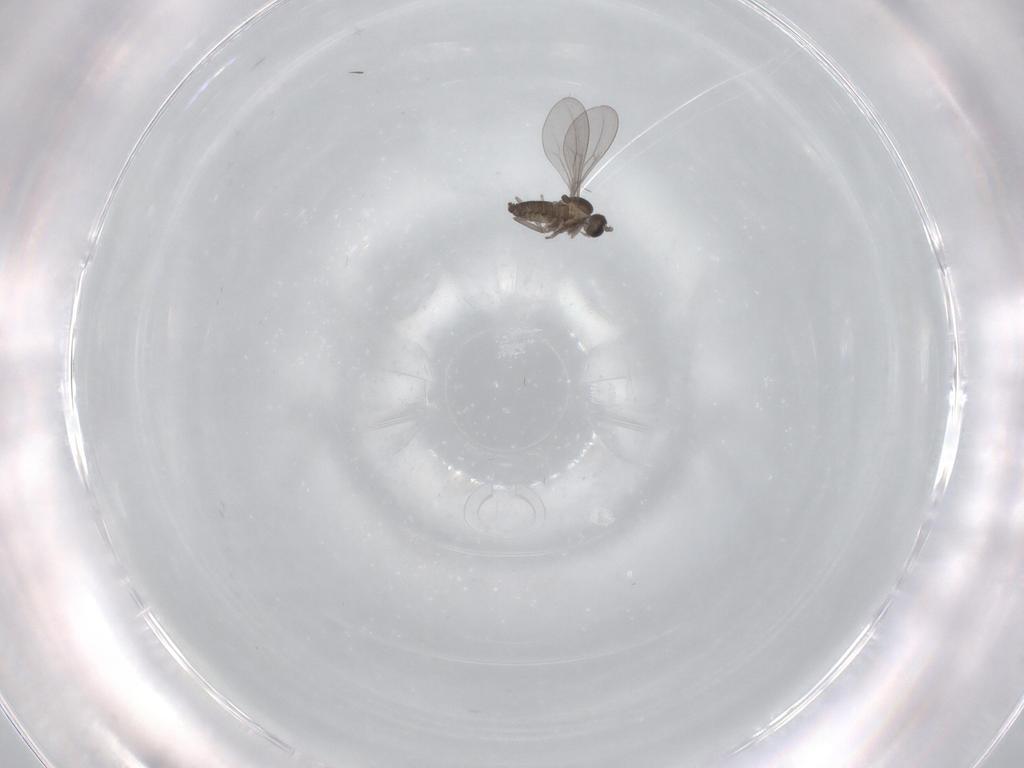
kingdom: Animalia
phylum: Arthropoda
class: Insecta
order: Diptera
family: Cecidomyiidae
